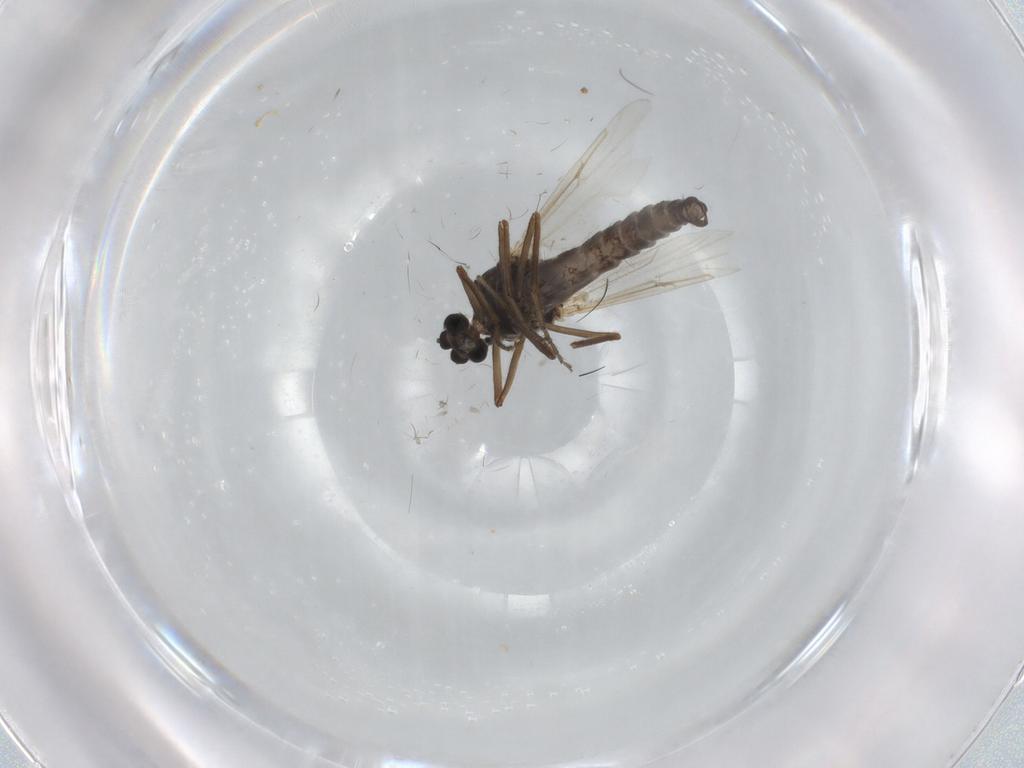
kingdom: Animalia
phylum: Arthropoda
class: Insecta
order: Diptera
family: Ceratopogonidae
